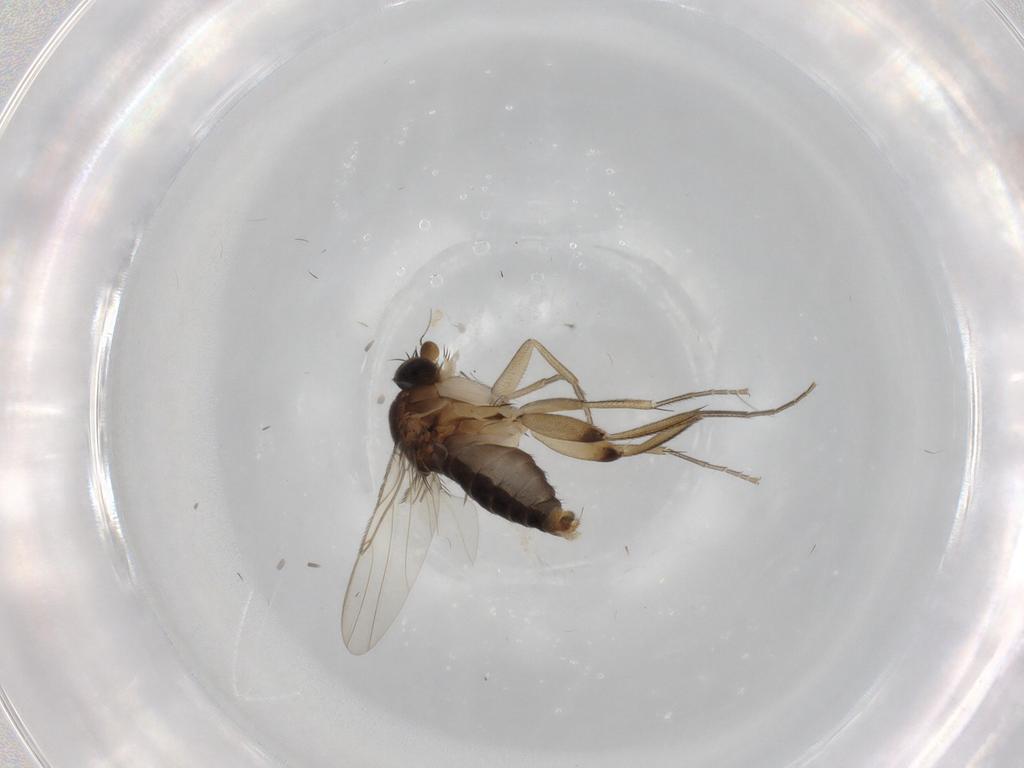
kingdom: Animalia
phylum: Arthropoda
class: Insecta
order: Diptera
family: Phoridae
